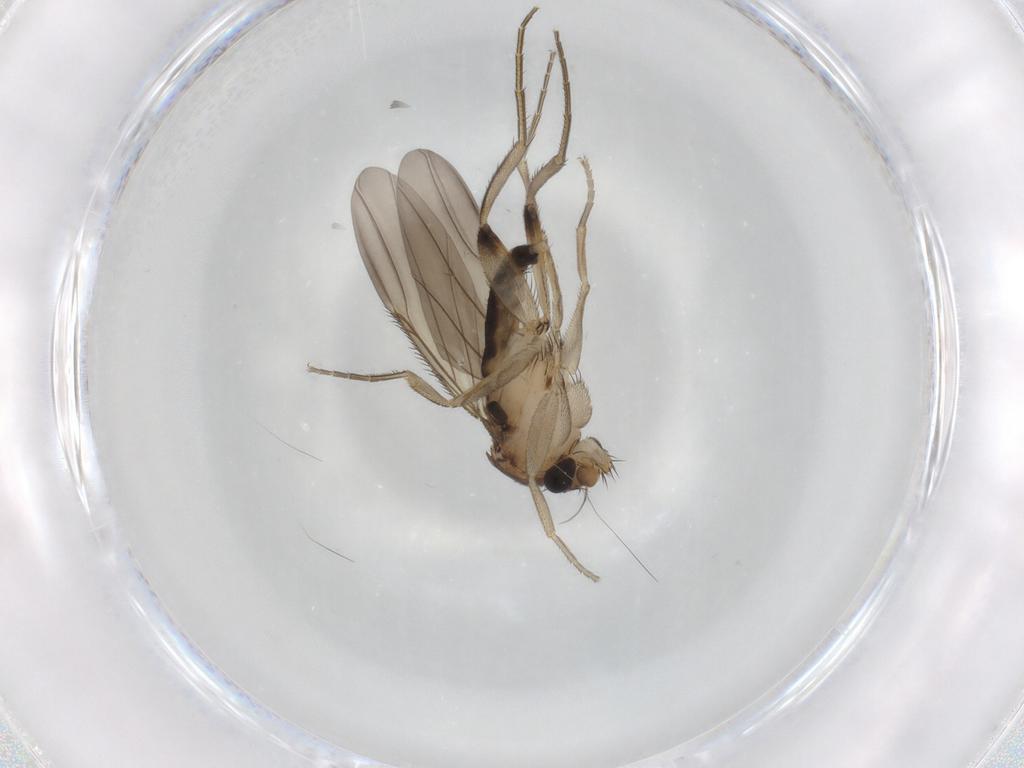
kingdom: Animalia
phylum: Arthropoda
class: Insecta
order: Diptera
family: Phoridae
